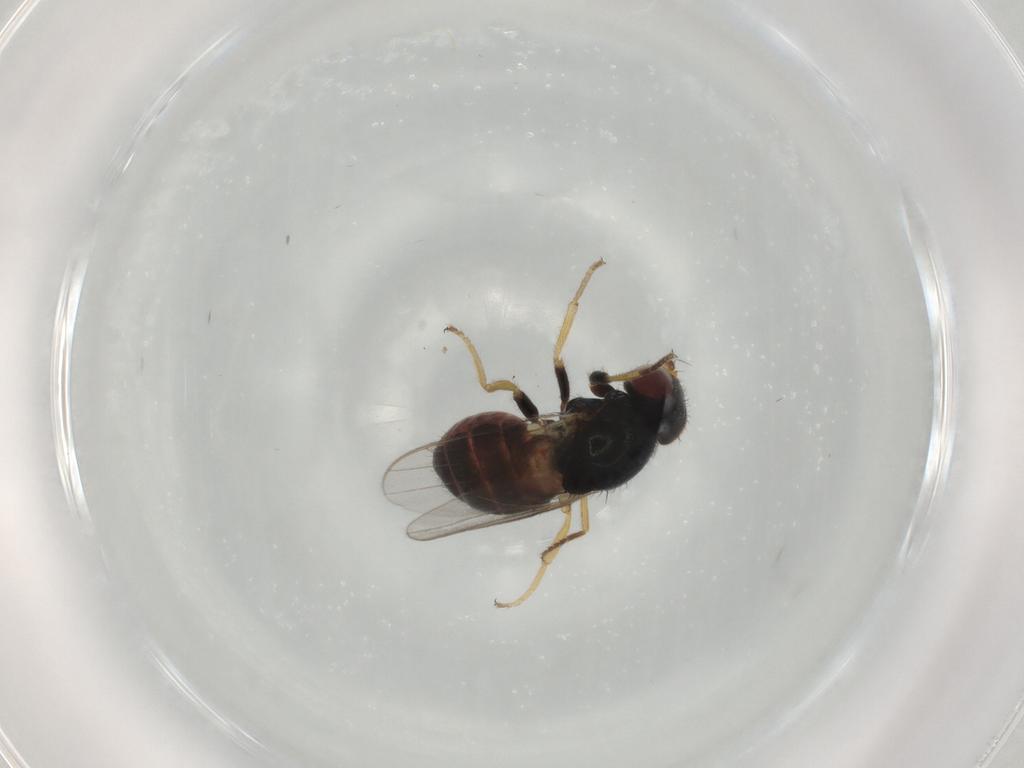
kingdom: Animalia
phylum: Arthropoda
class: Insecta
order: Diptera
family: Chloropidae
